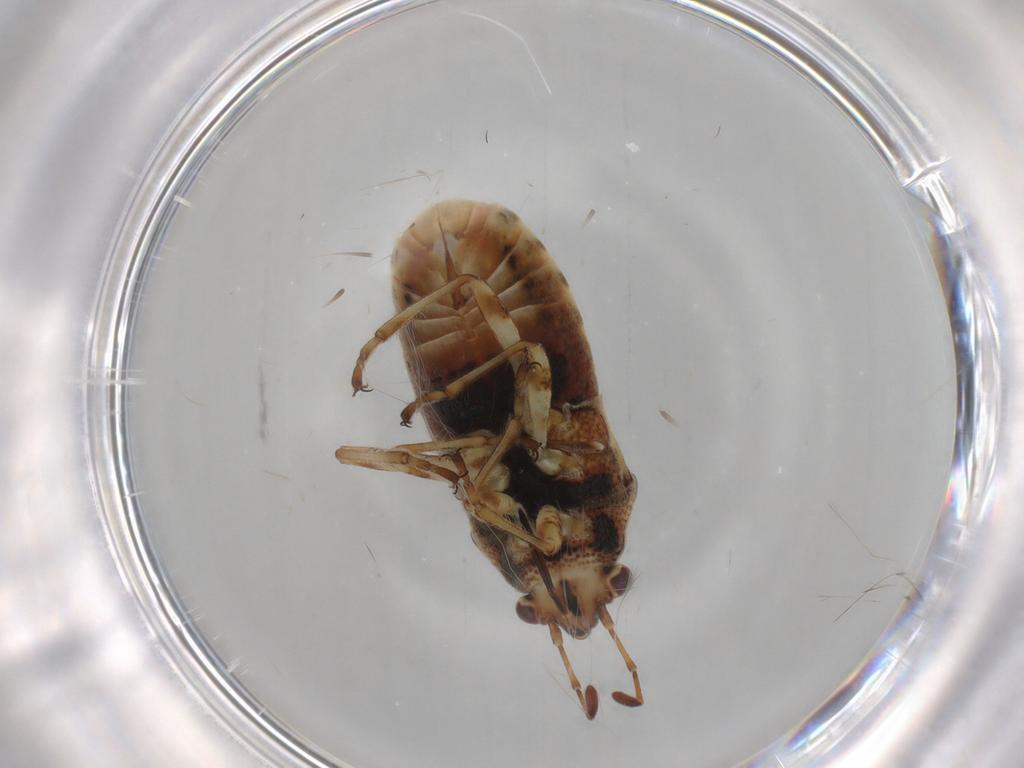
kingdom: Animalia
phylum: Arthropoda
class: Insecta
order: Hemiptera
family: Lygaeidae
